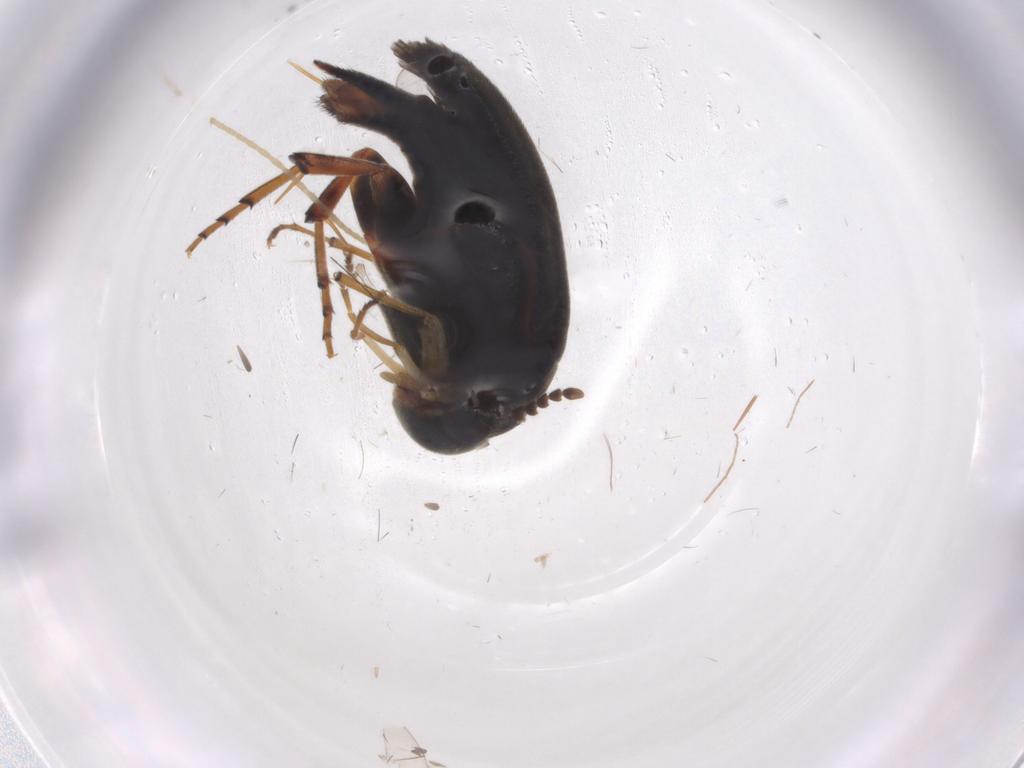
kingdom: Animalia
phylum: Arthropoda
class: Insecta
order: Coleoptera
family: Mordellidae
